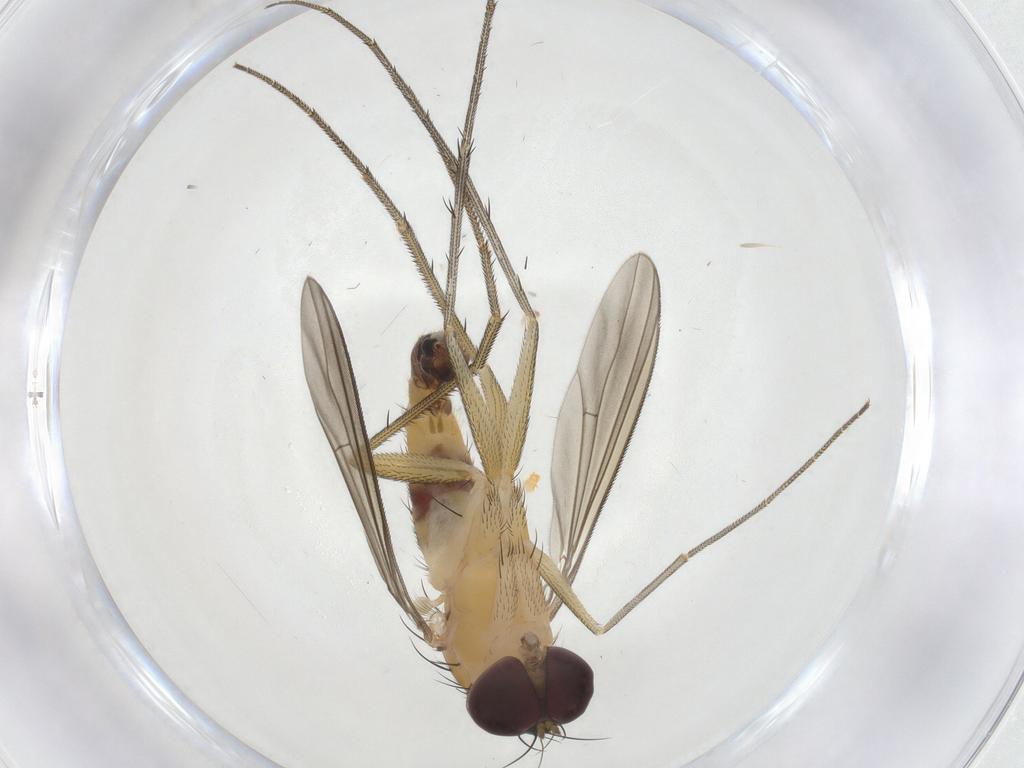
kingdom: Animalia
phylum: Arthropoda
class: Insecta
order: Diptera
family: Dolichopodidae
